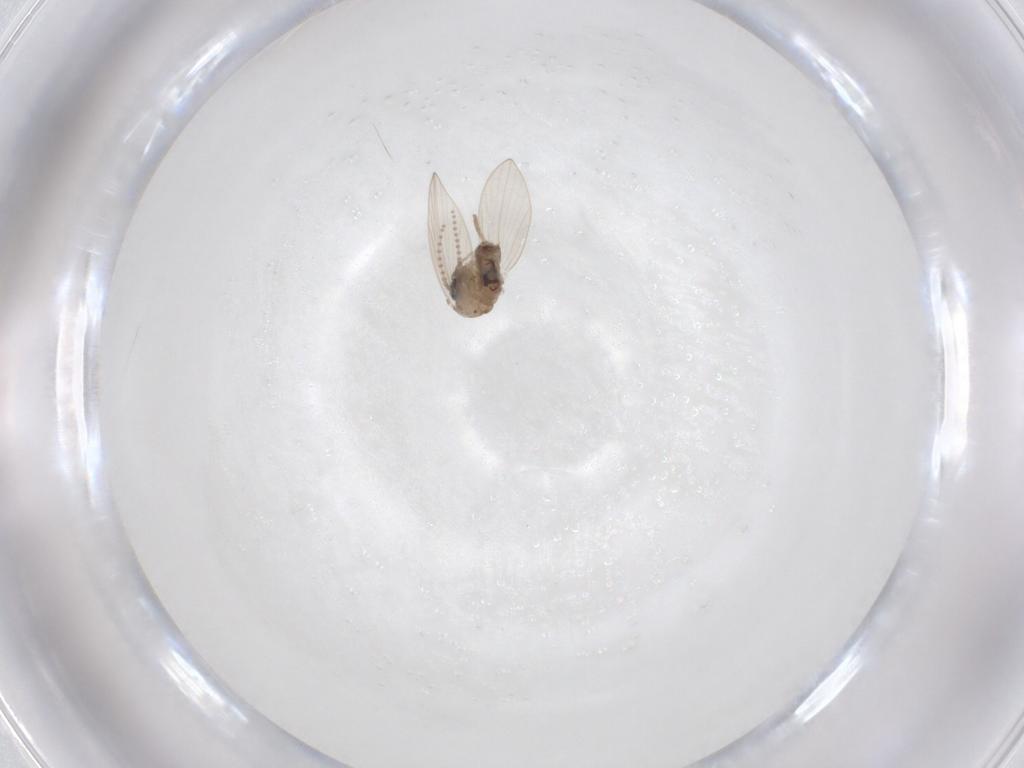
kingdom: Animalia
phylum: Arthropoda
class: Insecta
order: Diptera
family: Psychodidae
